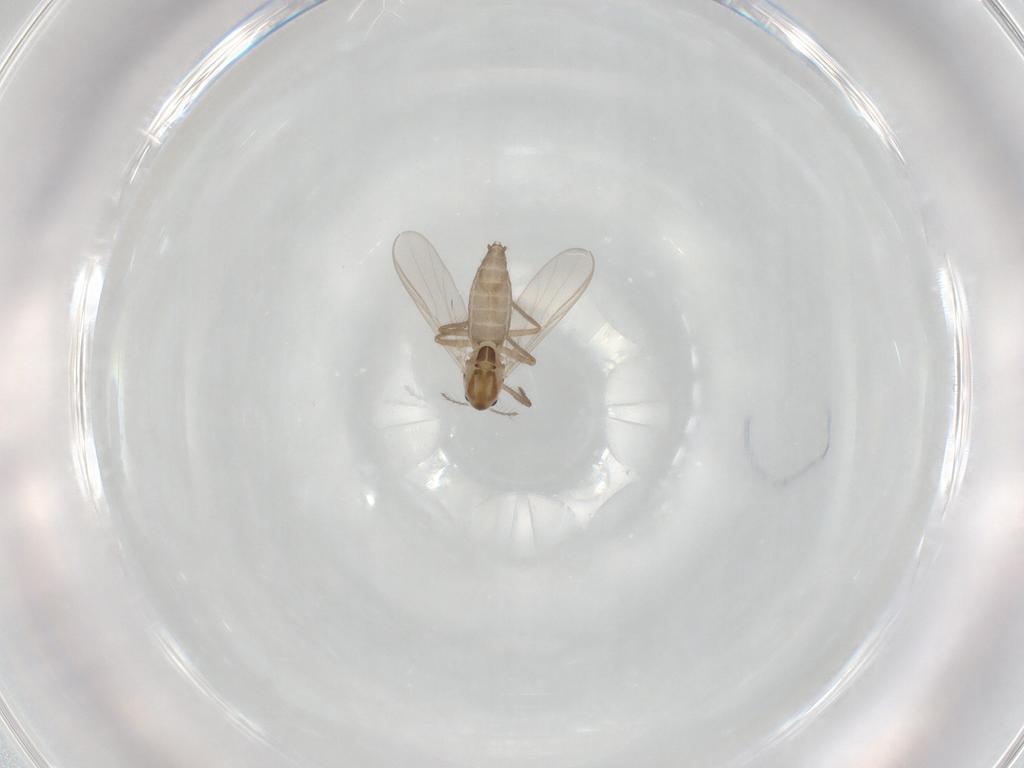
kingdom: Animalia
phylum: Arthropoda
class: Insecta
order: Diptera
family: Chironomidae
